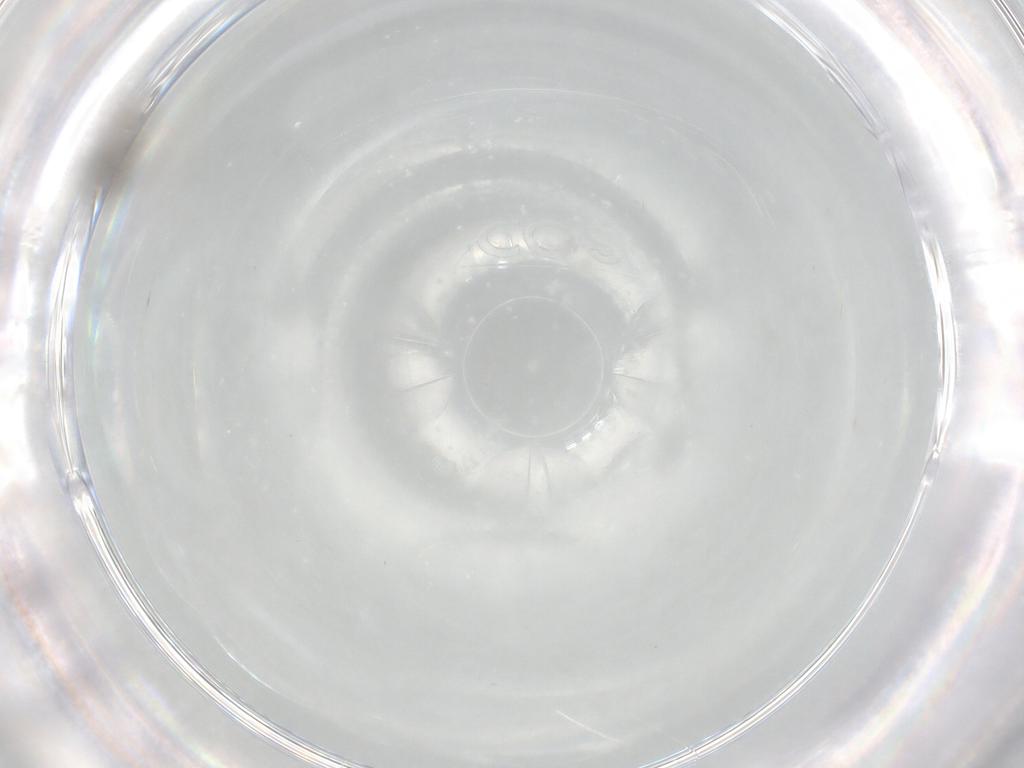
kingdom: Animalia
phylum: Arthropoda
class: Insecta
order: Diptera
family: Ceratopogonidae
